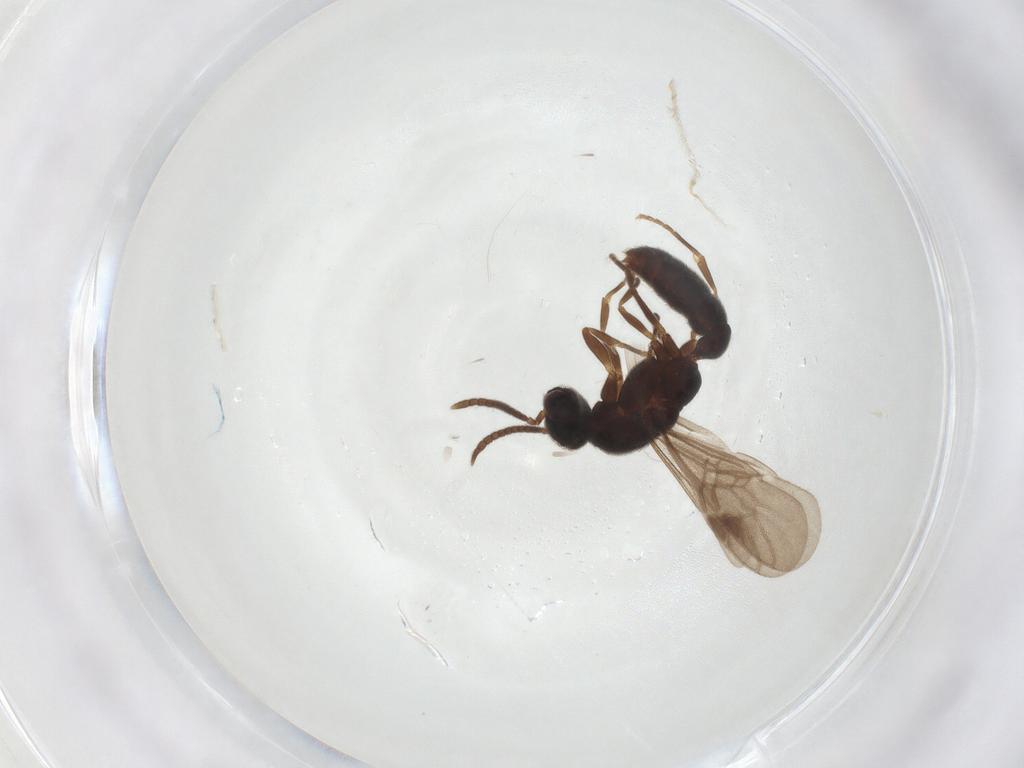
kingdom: Animalia
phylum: Arthropoda
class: Insecta
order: Hymenoptera
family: Formicidae
